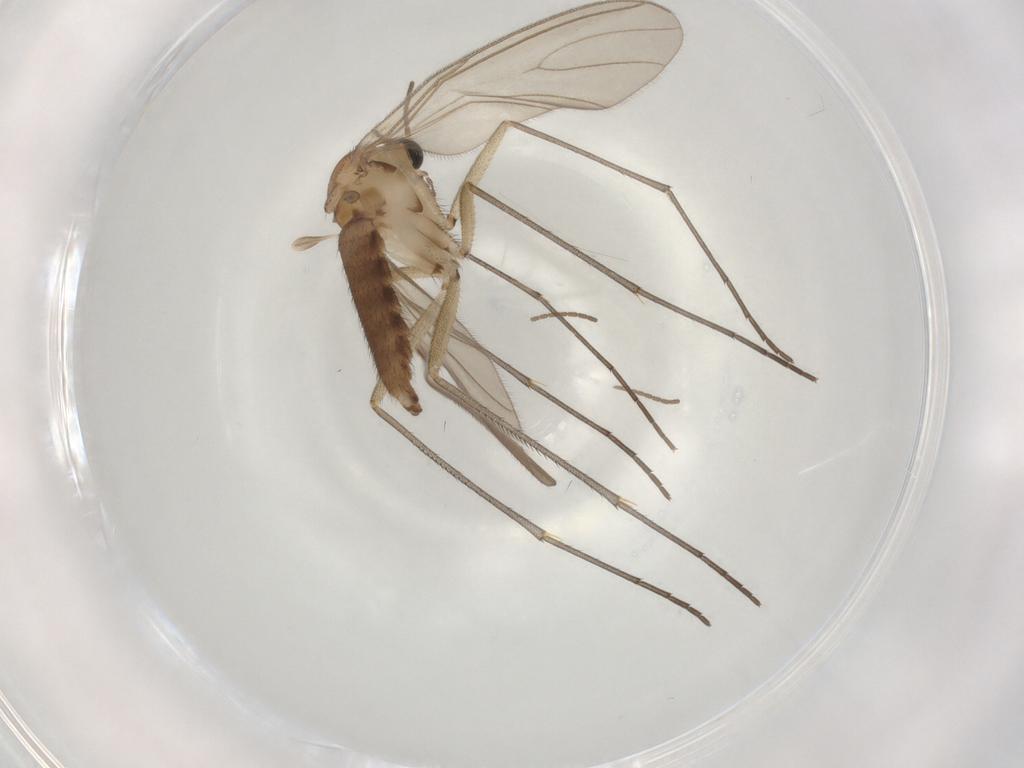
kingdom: Animalia
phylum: Arthropoda
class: Insecta
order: Diptera
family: Sciaridae
